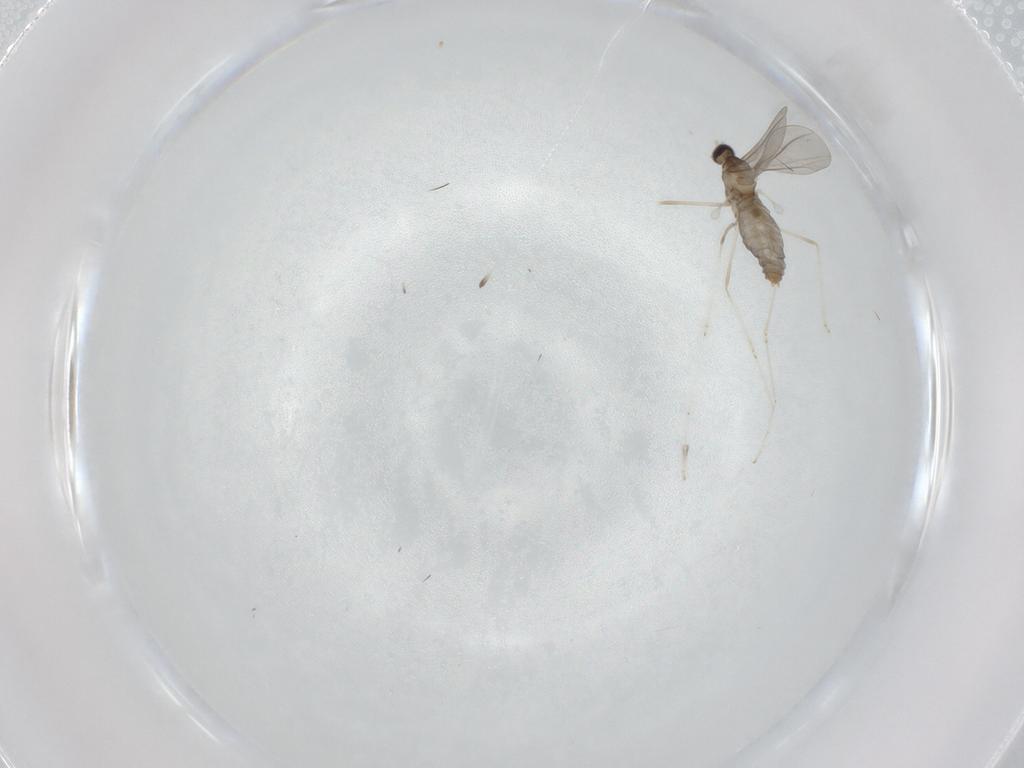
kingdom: Animalia
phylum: Arthropoda
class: Insecta
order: Diptera
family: Cecidomyiidae
